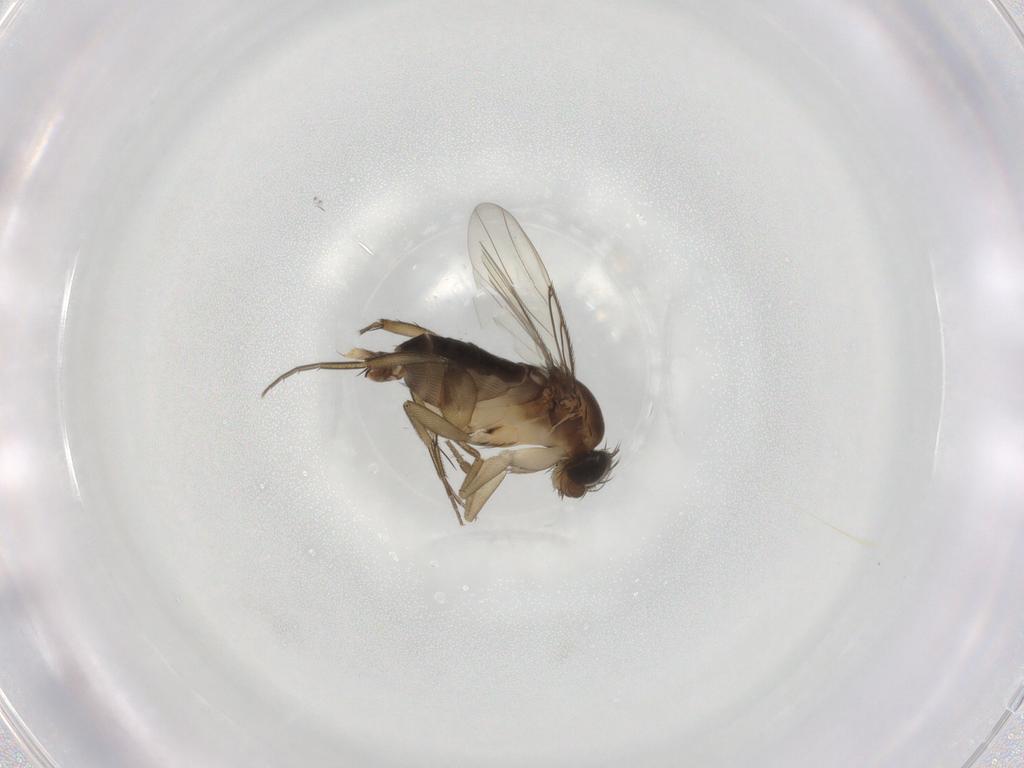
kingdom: Animalia
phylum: Arthropoda
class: Insecta
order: Diptera
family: Phoridae
